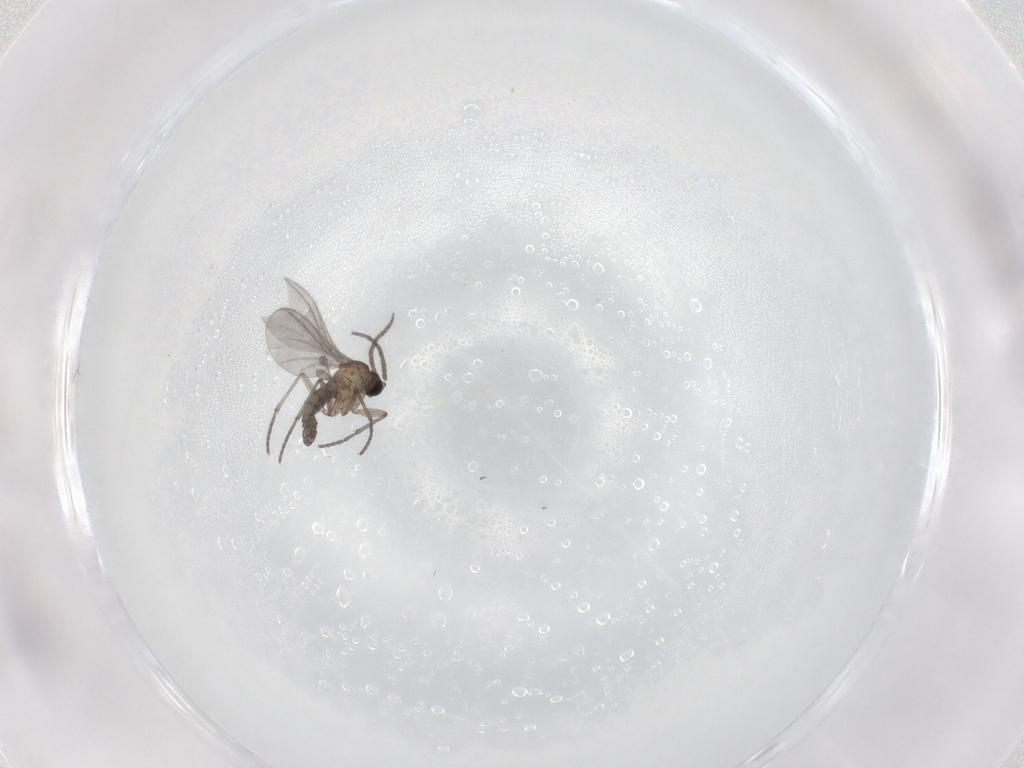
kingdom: Animalia
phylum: Arthropoda
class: Insecta
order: Diptera
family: Sciaridae
